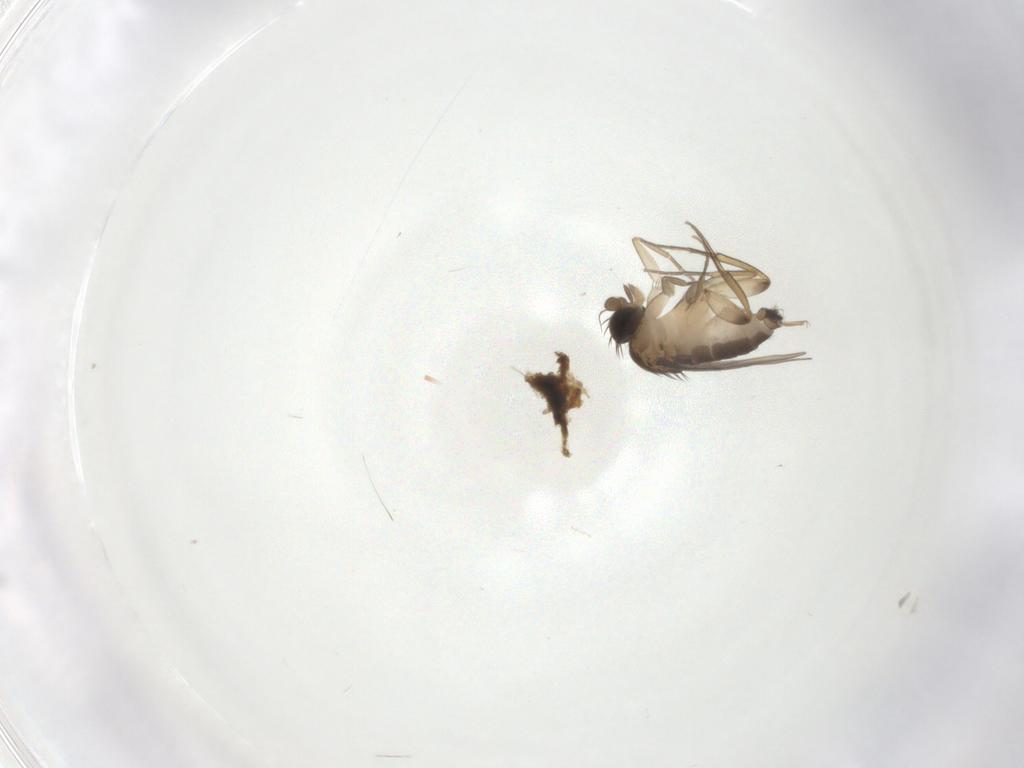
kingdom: Animalia
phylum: Arthropoda
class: Insecta
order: Diptera
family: Phoridae
